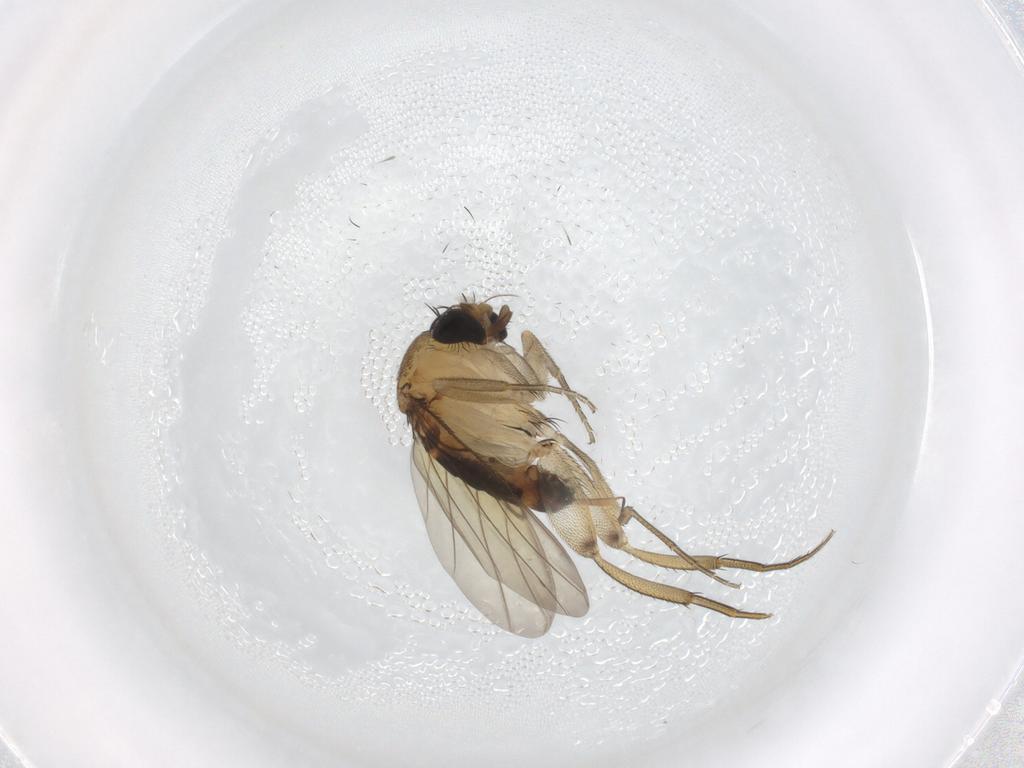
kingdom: Animalia
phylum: Arthropoda
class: Insecta
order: Diptera
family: Phoridae
